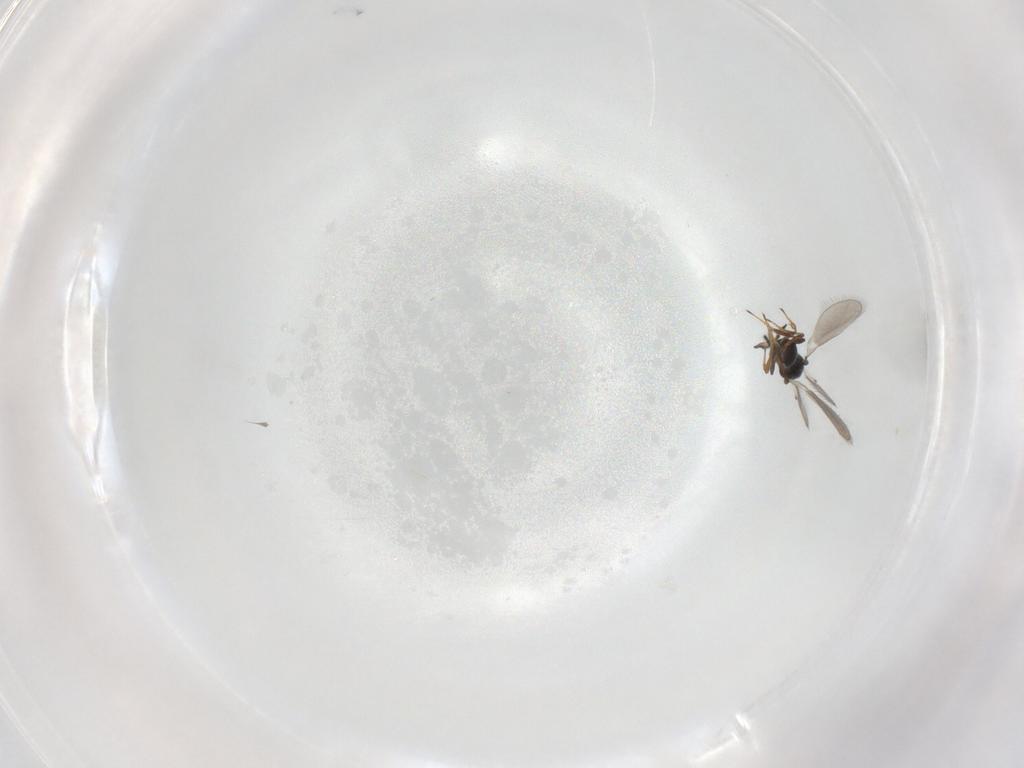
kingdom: Animalia
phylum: Arthropoda
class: Insecta
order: Hymenoptera
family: Platygastridae
